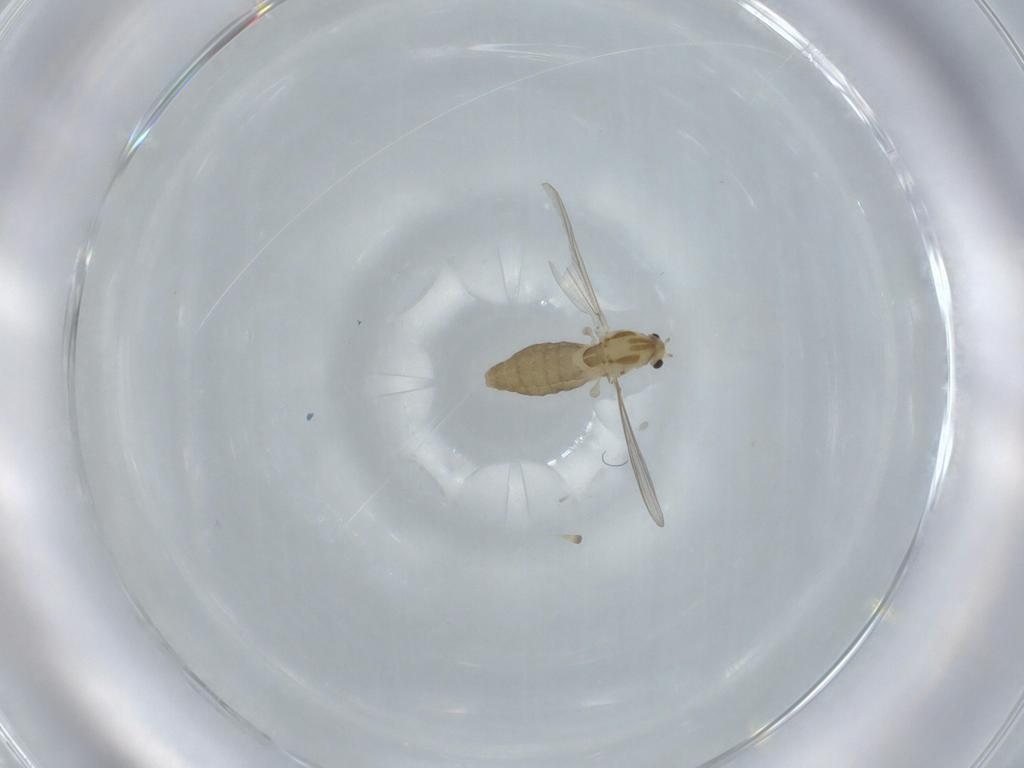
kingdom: Animalia
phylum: Arthropoda
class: Insecta
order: Diptera
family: Chironomidae
